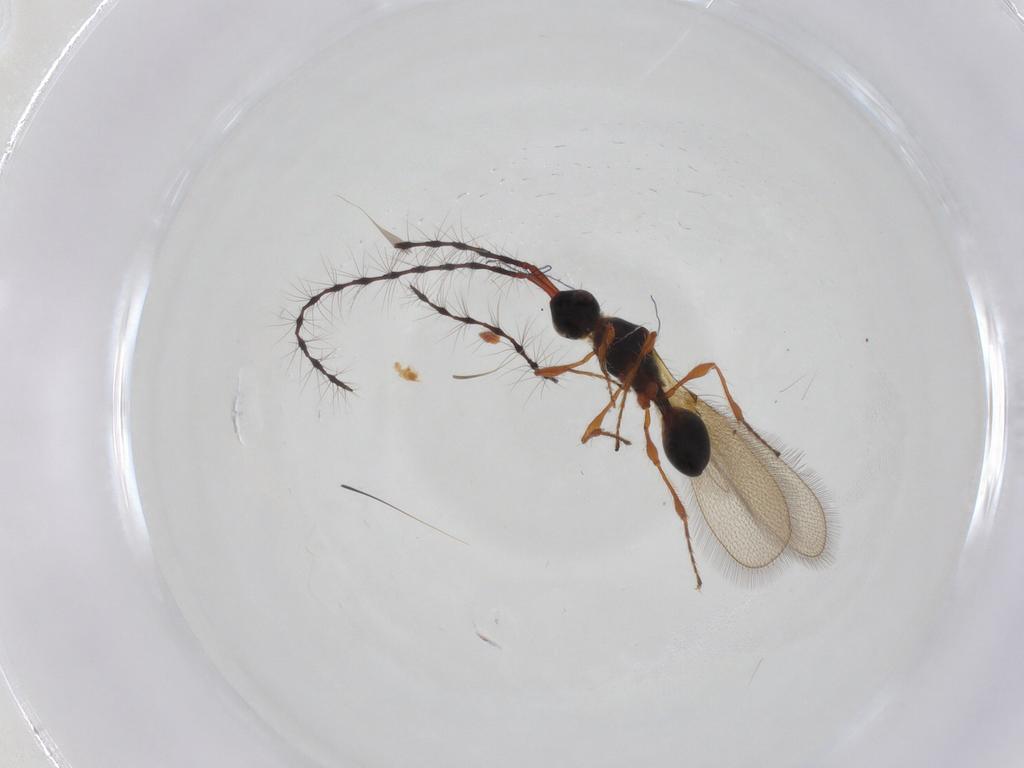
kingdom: Animalia
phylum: Arthropoda
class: Insecta
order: Hymenoptera
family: Diapriidae
